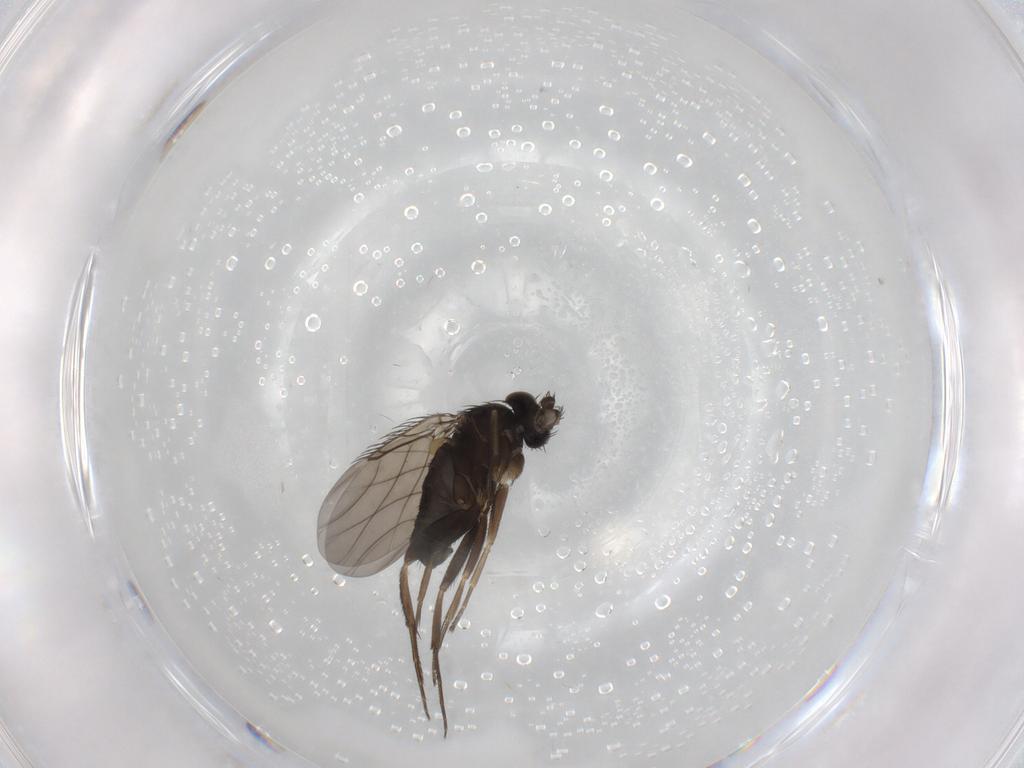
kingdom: Animalia
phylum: Arthropoda
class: Insecta
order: Diptera
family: Phoridae
